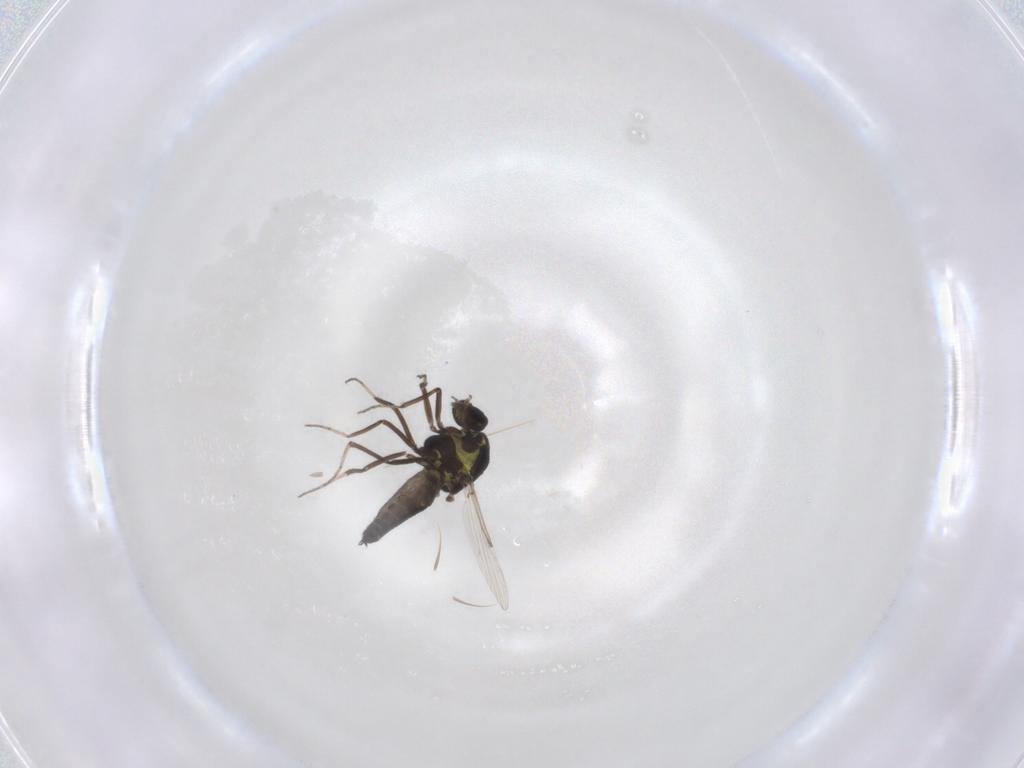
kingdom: Animalia
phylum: Arthropoda
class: Insecta
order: Diptera
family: Ceratopogonidae
